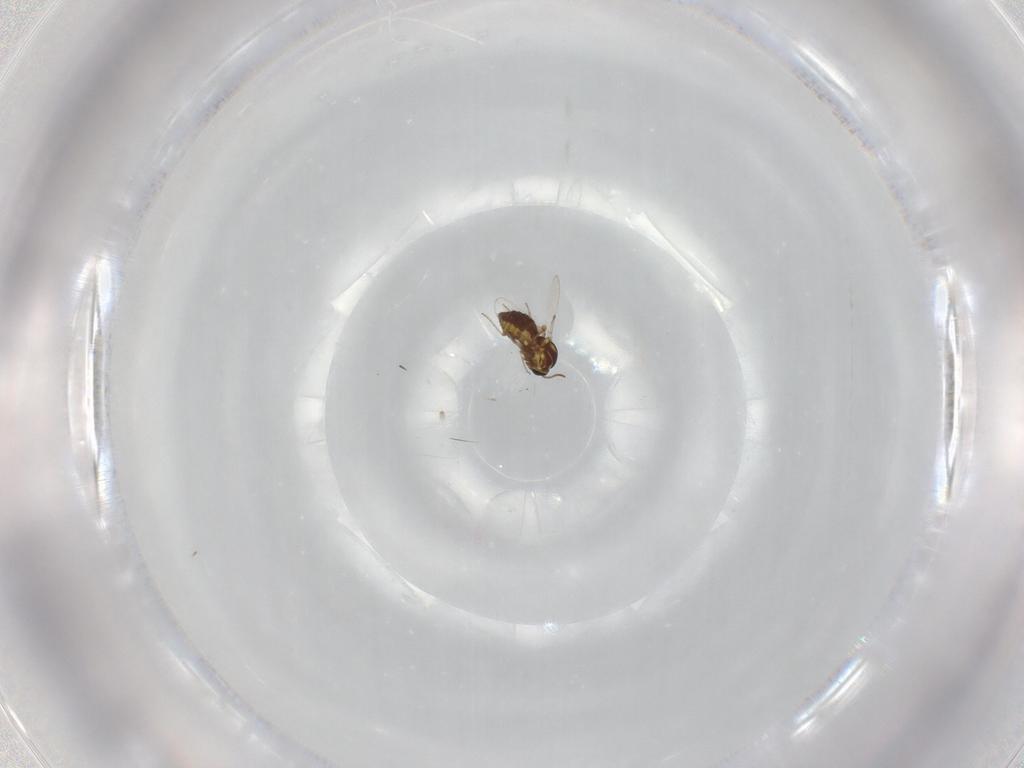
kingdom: Animalia
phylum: Arthropoda
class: Insecta
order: Diptera
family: Ceratopogonidae
